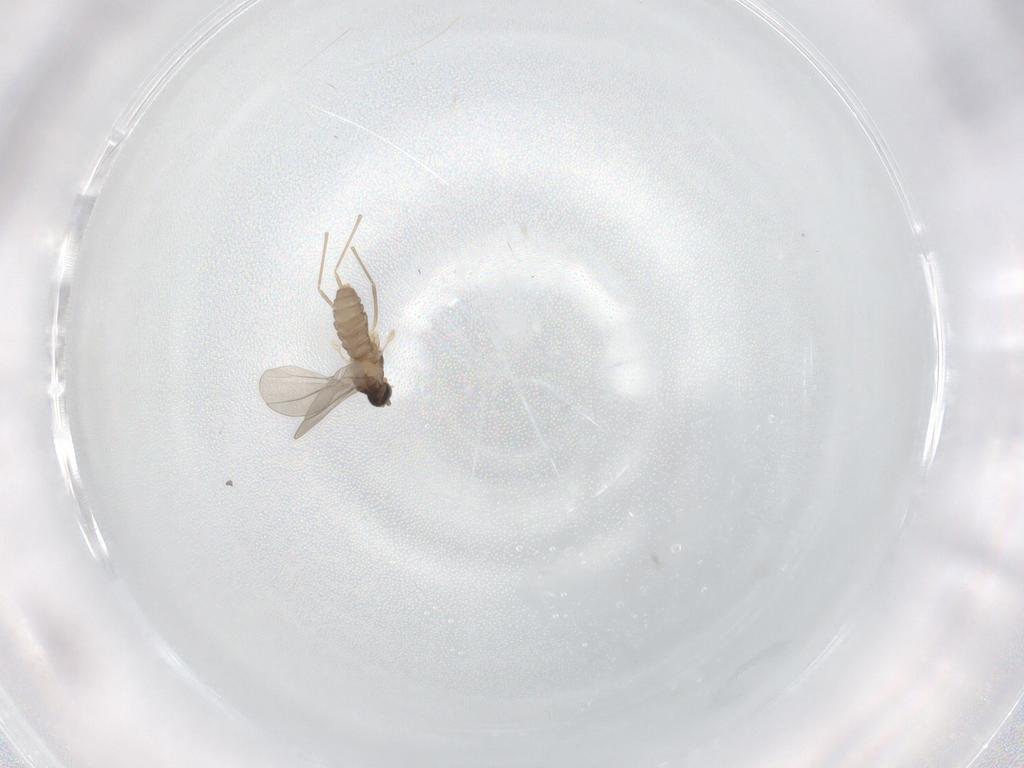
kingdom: Animalia
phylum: Arthropoda
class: Insecta
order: Diptera
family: Cecidomyiidae
